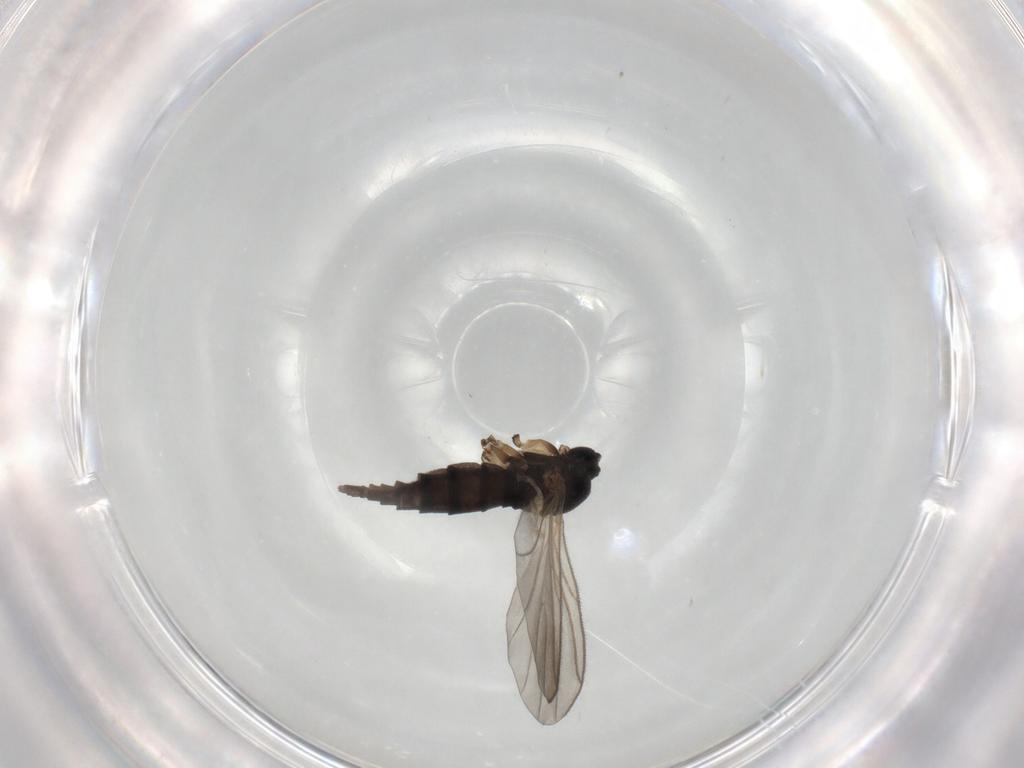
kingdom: Animalia
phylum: Arthropoda
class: Insecta
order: Diptera
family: Sciaridae
